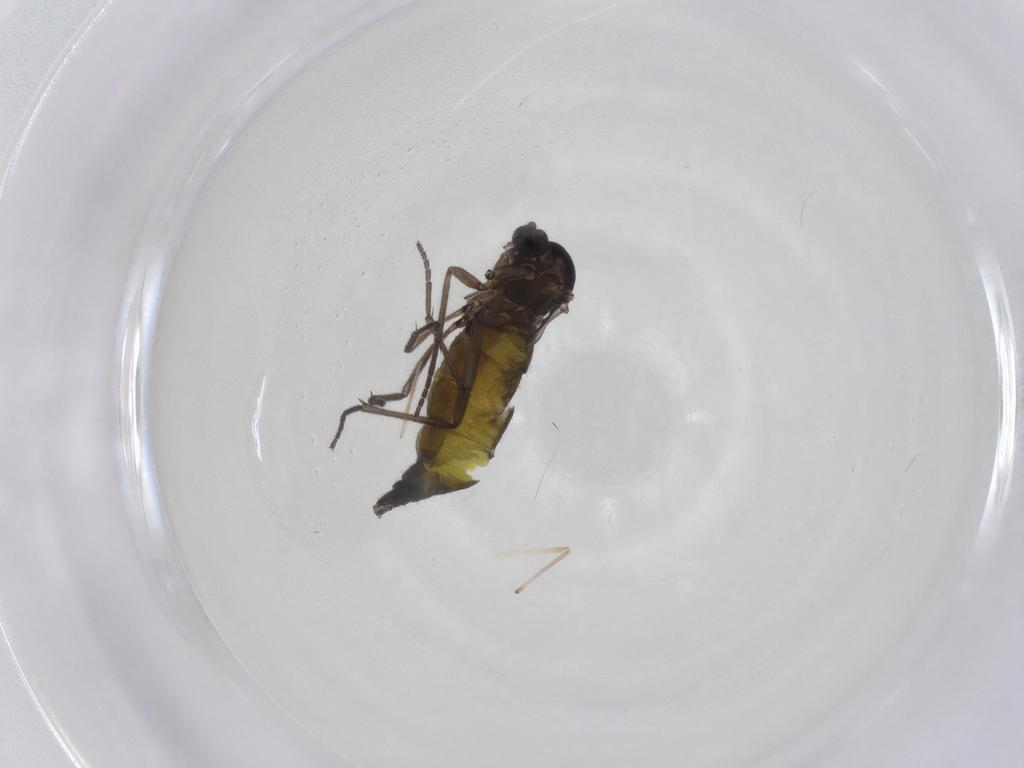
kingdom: Animalia
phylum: Arthropoda
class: Insecta
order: Diptera
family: Sciaridae
